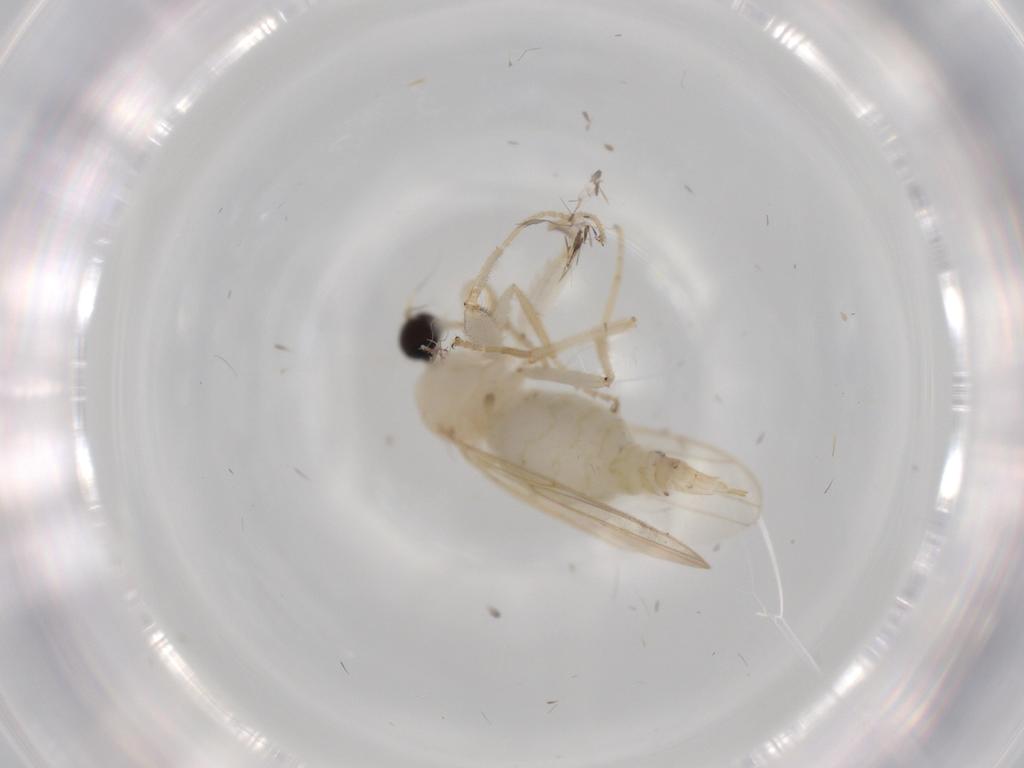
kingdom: Animalia
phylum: Arthropoda
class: Insecta
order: Diptera
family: Hybotidae
